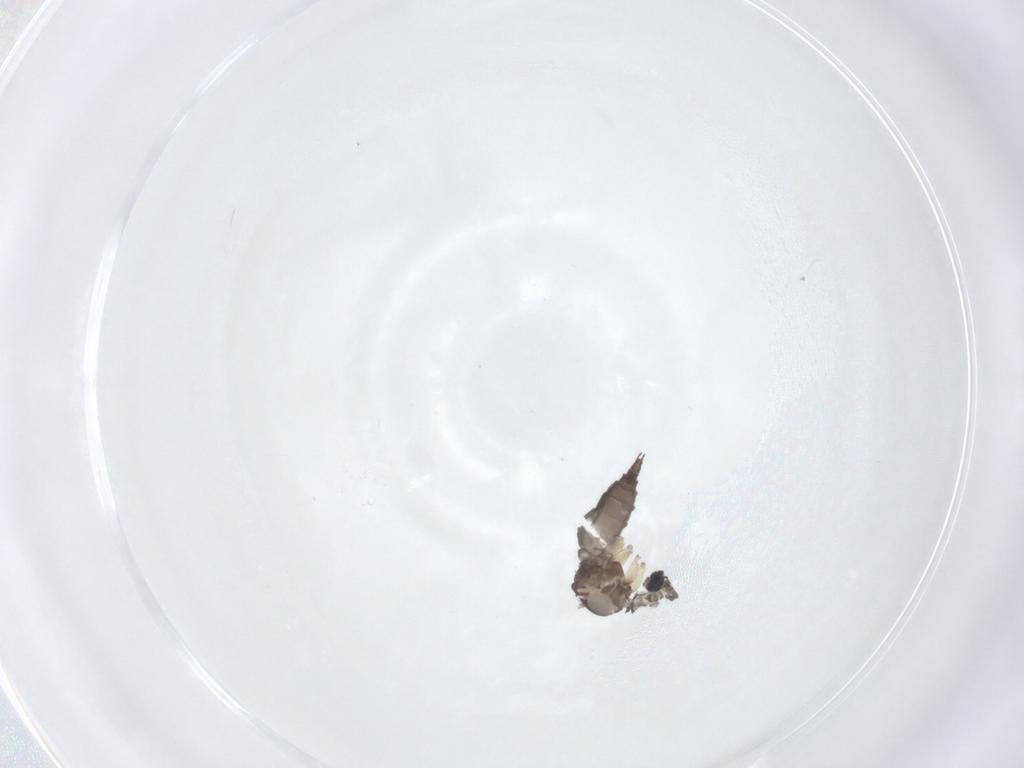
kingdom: Animalia
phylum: Arthropoda
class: Insecta
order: Diptera
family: Sciaridae
